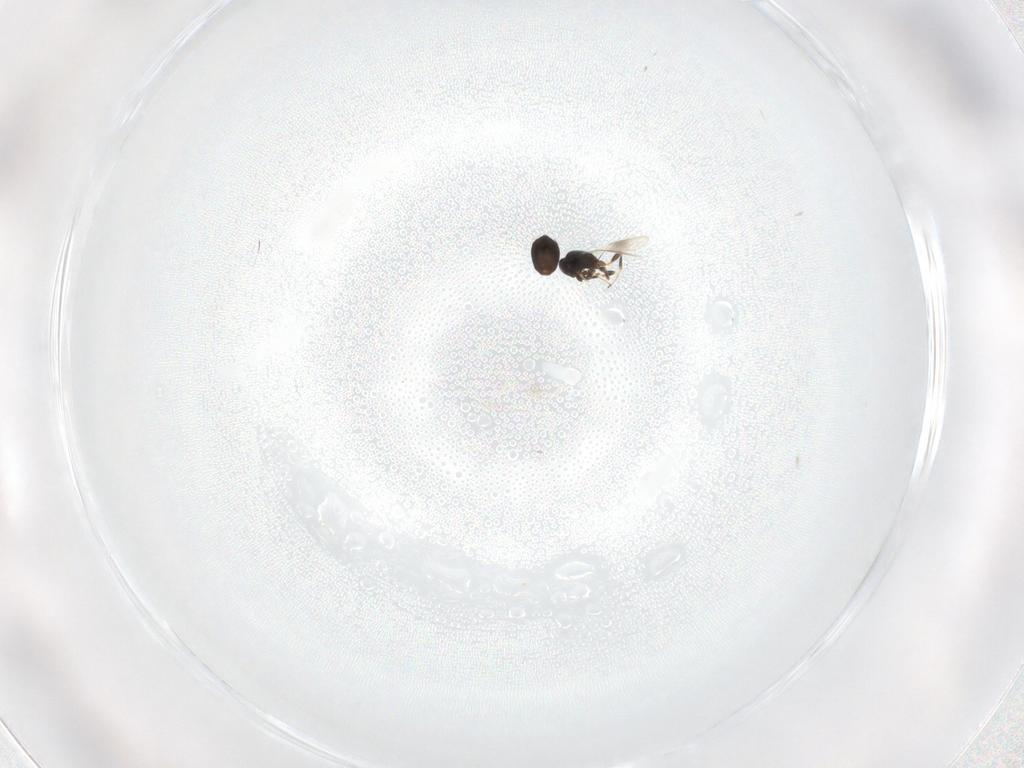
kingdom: Animalia
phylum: Arthropoda
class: Insecta
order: Hymenoptera
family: Platygastridae
